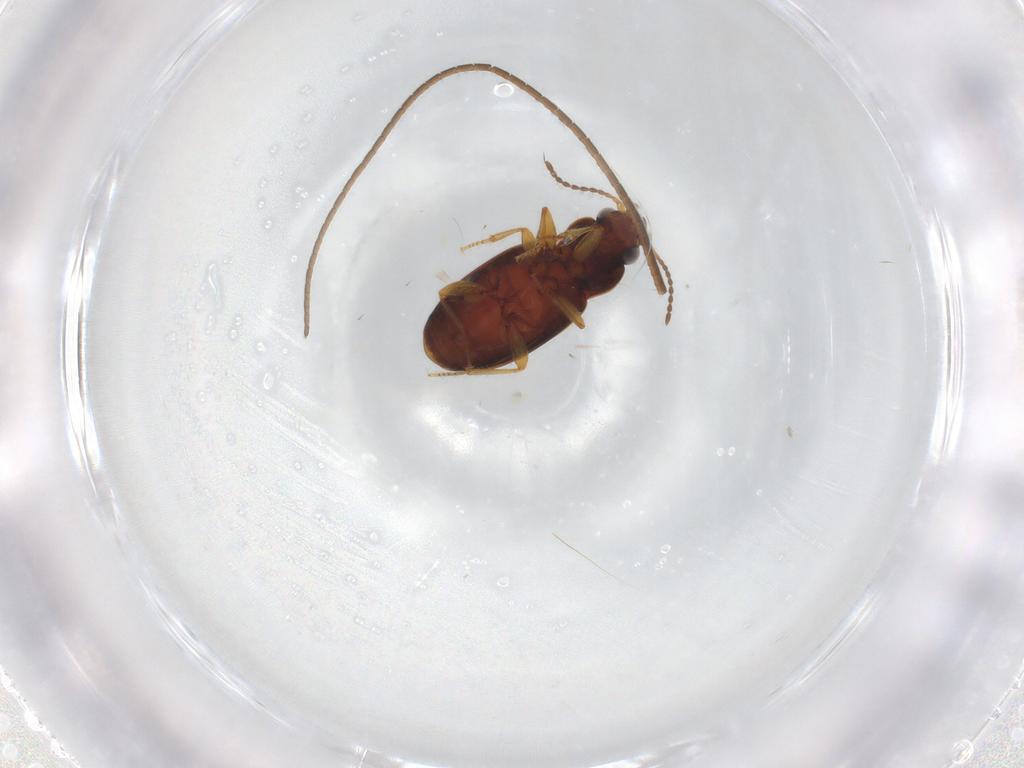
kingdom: Animalia
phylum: Arthropoda
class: Insecta
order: Coleoptera
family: Carabidae
